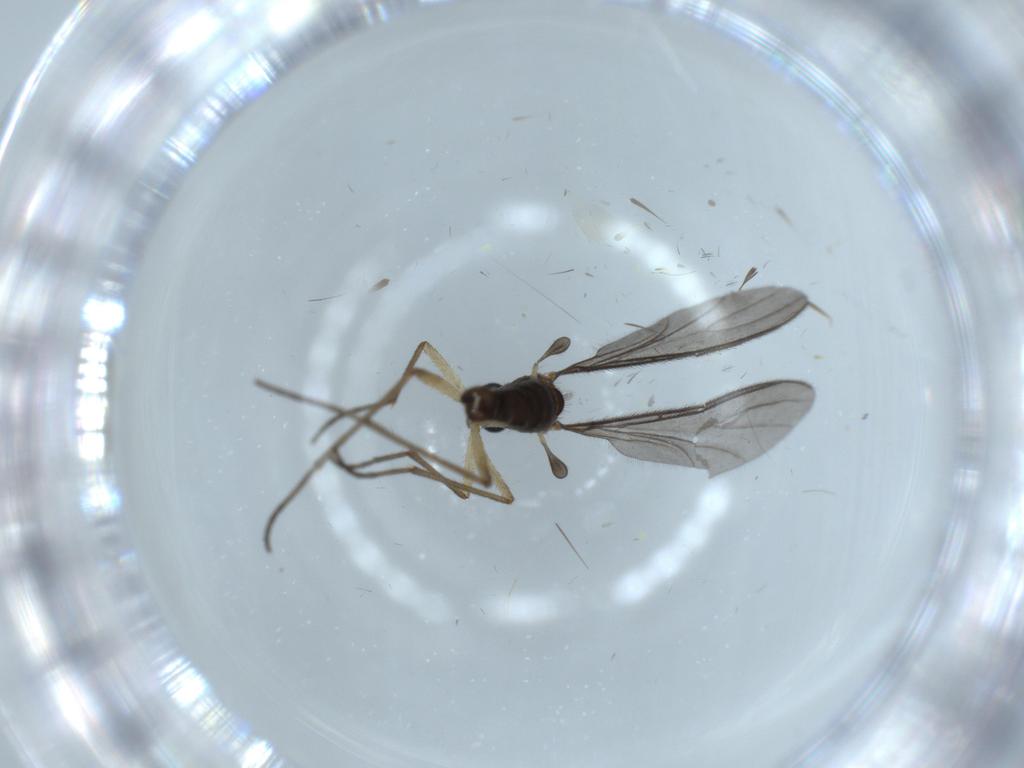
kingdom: Animalia
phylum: Arthropoda
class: Insecta
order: Diptera
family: Sciaridae
